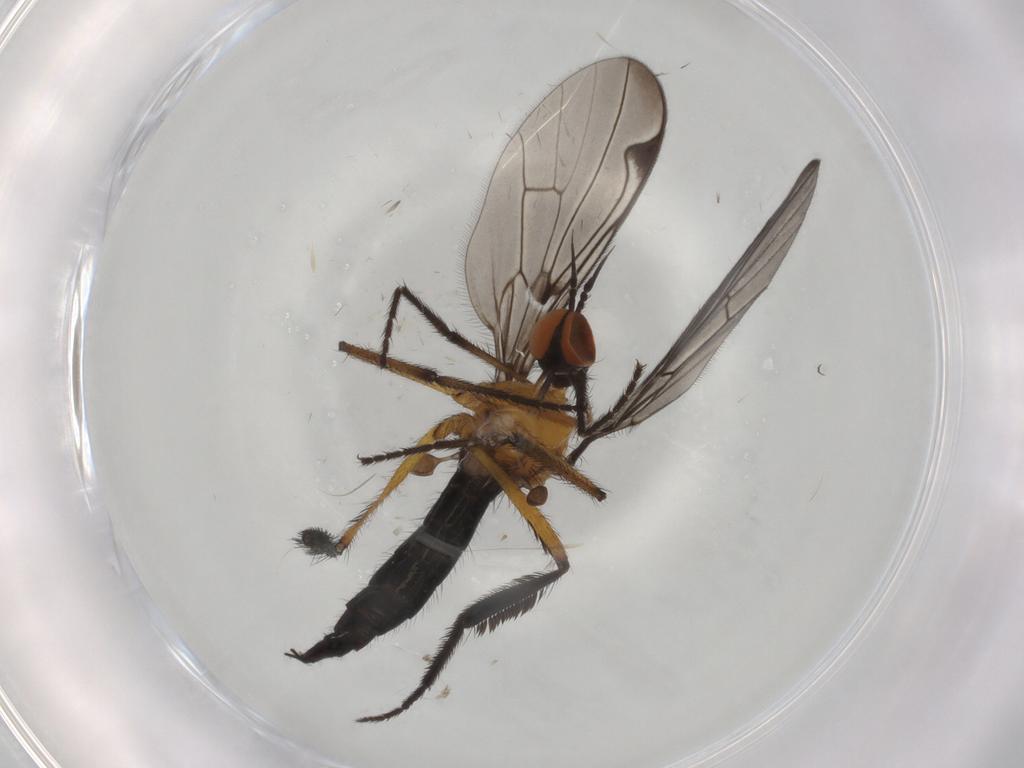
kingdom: Animalia
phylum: Arthropoda
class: Insecta
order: Diptera
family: Empididae
